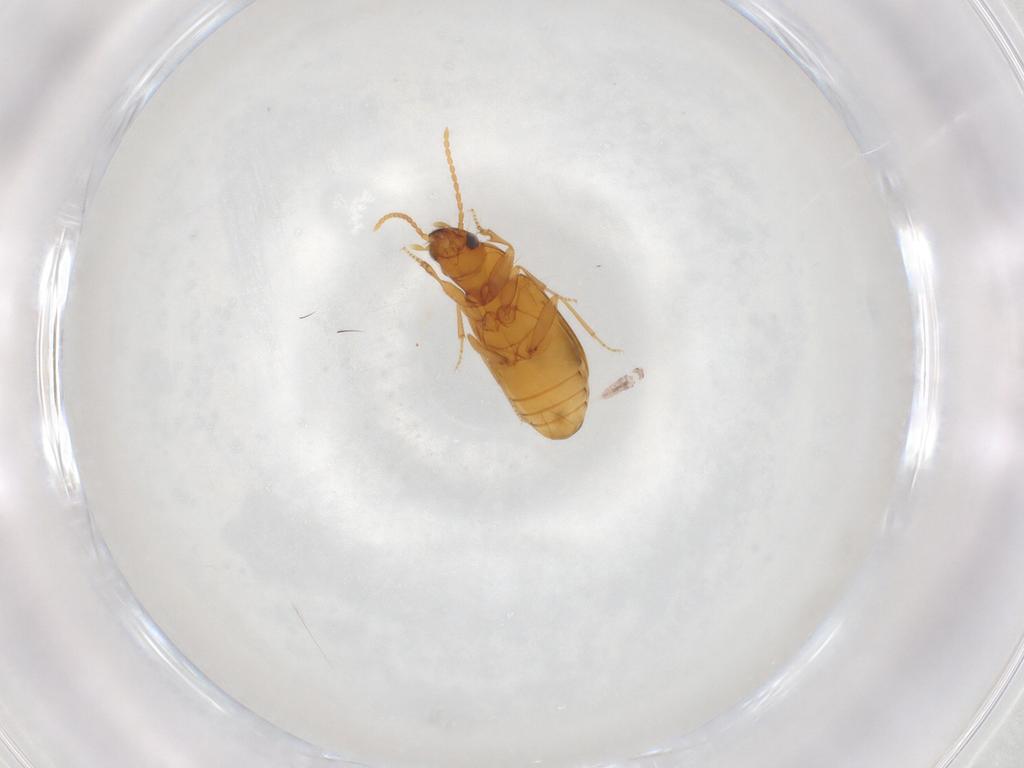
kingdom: Animalia
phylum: Arthropoda
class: Insecta
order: Coleoptera
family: Carabidae
